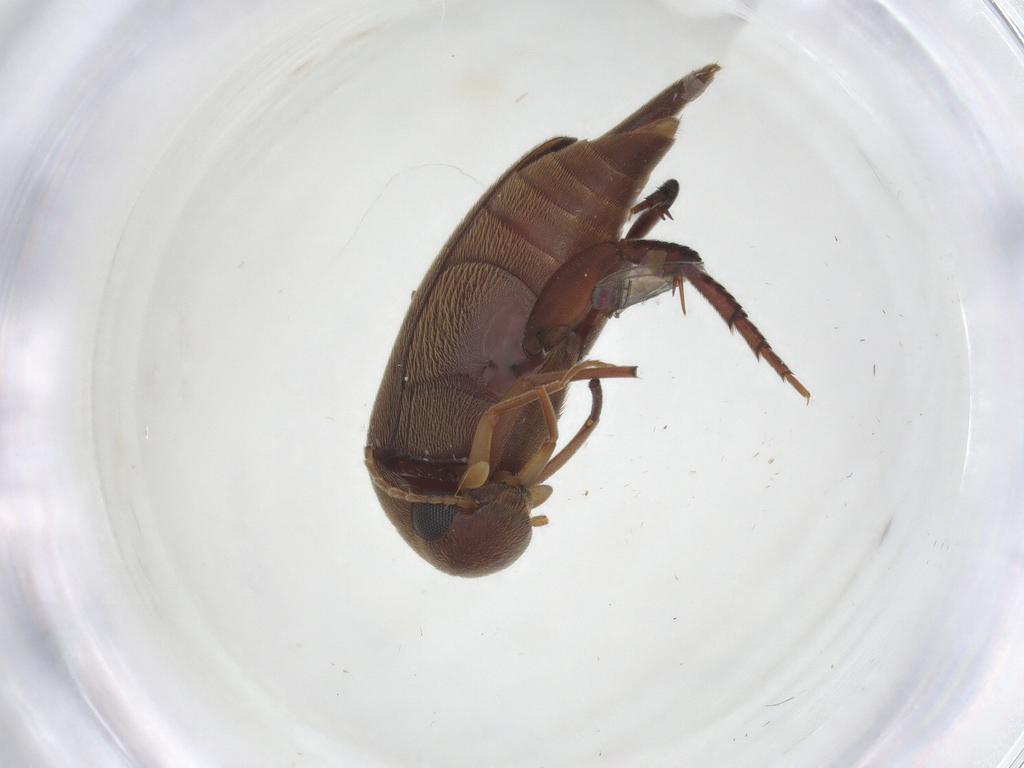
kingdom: Animalia
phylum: Arthropoda
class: Insecta
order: Coleoptera
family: Mordellidae
